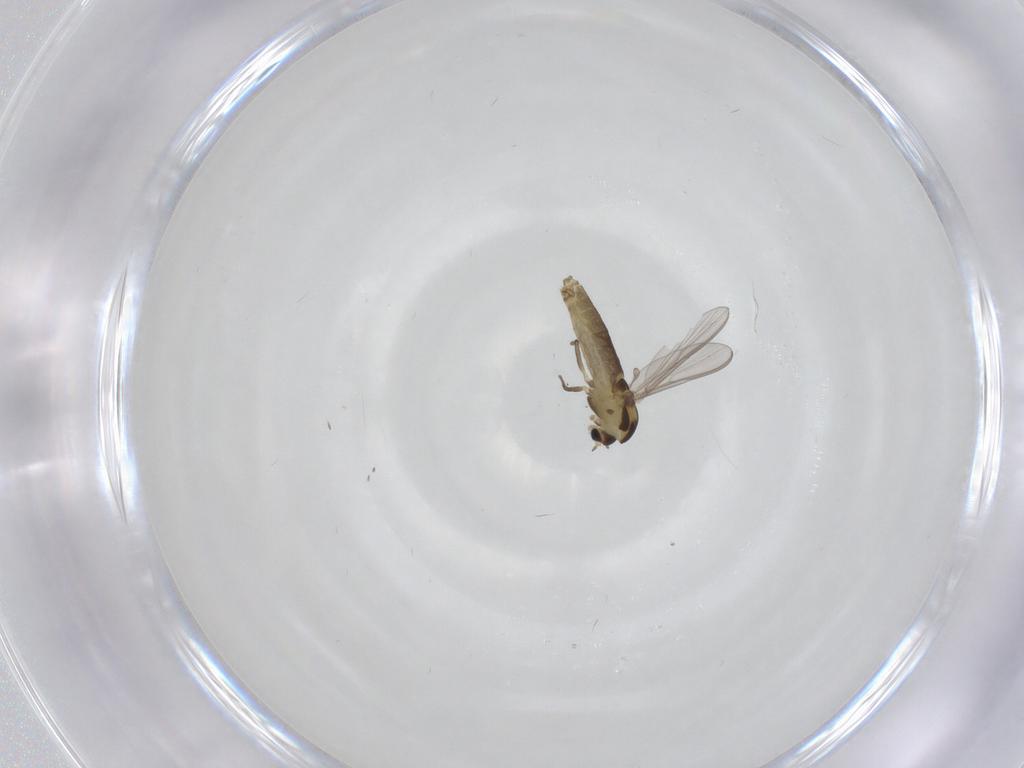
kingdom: Animalia
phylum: Arthropoda
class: Insecta
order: Diptera
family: Chironomidae
